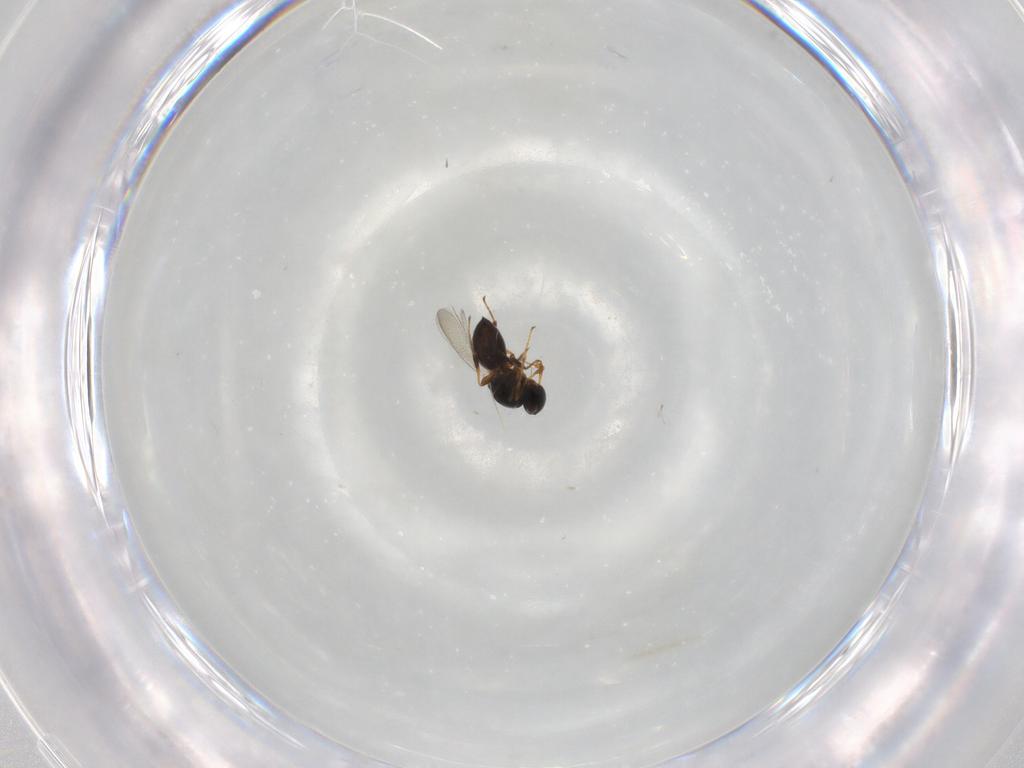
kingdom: Animalia
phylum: Arthropoda
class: Insecta
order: Hymenoptera
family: Platygastridae
